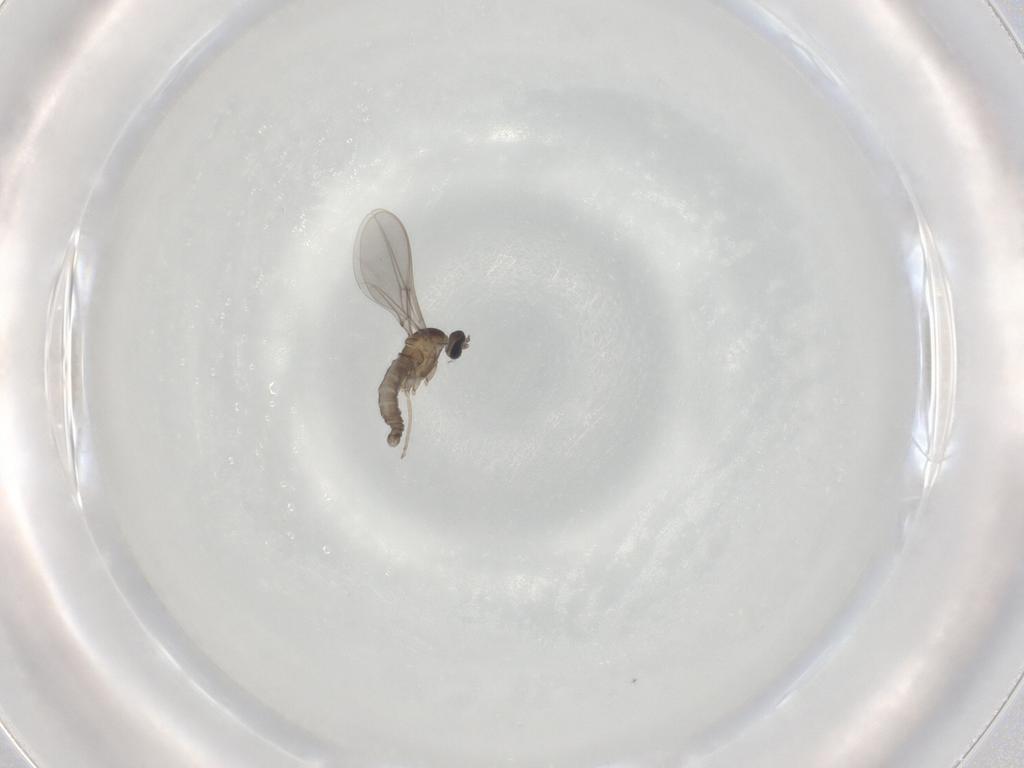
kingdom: Animalia
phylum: Arthropoda
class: Insecta
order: Diptera
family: Cecidomyiidae
